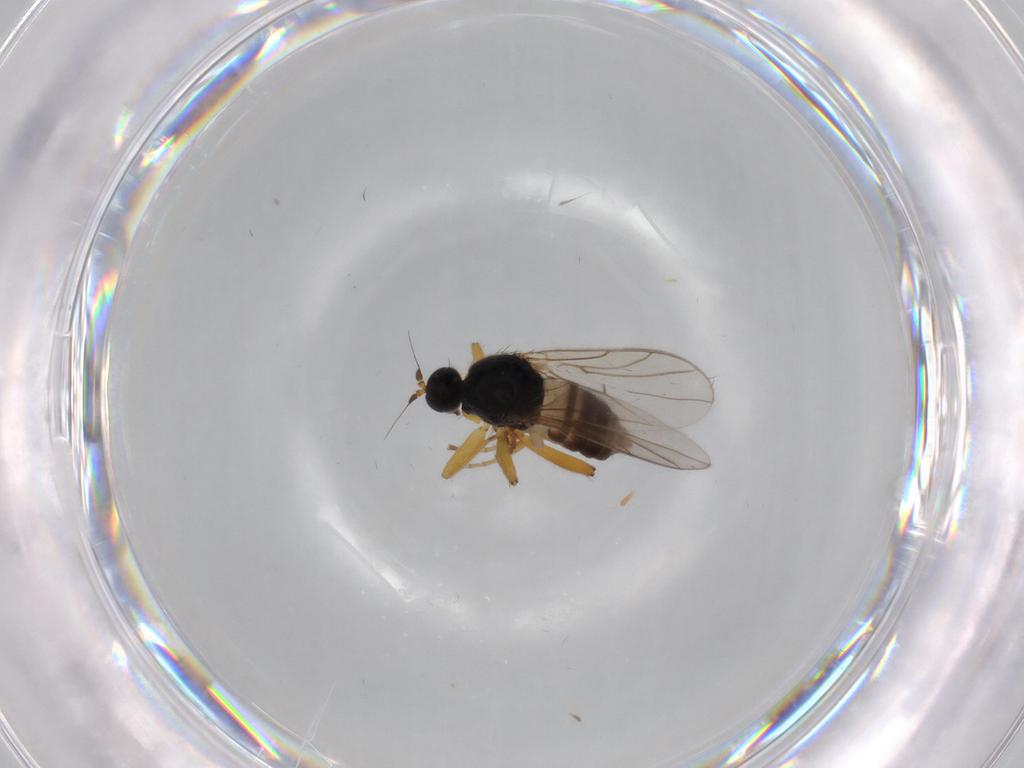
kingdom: Animalia
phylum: Arthropoda
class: Insecta
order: Diptera
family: Hybotidae
